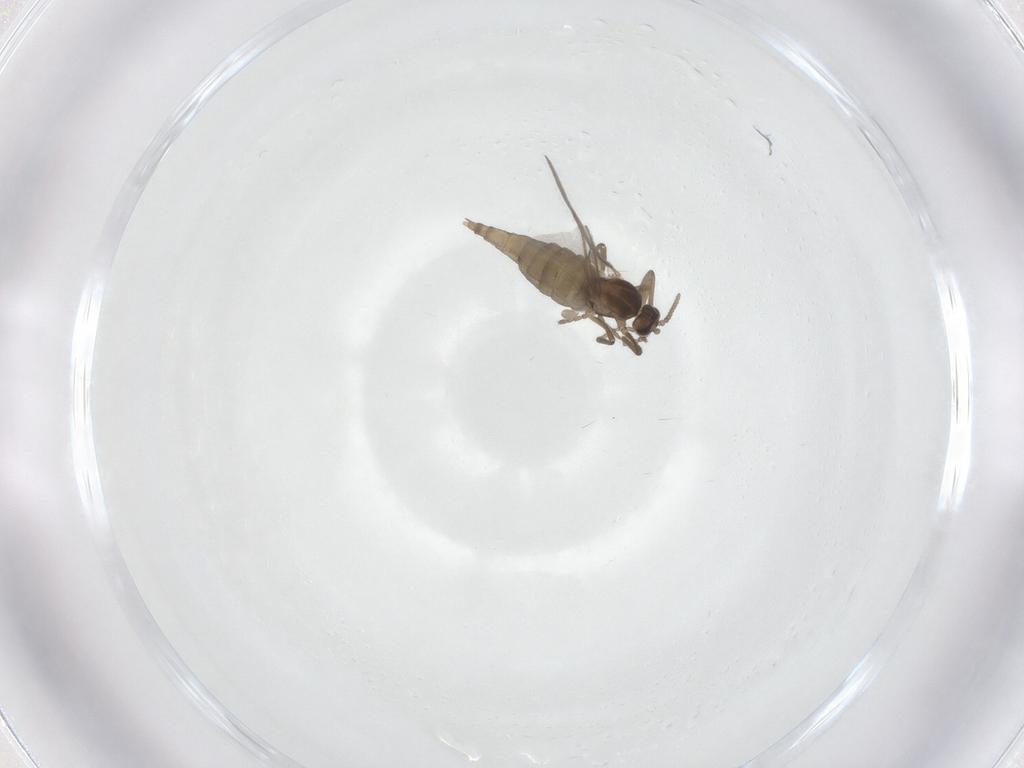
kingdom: Animalia
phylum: Arthropoda
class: Insecta
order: Diptera
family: Cecidomyiidae
